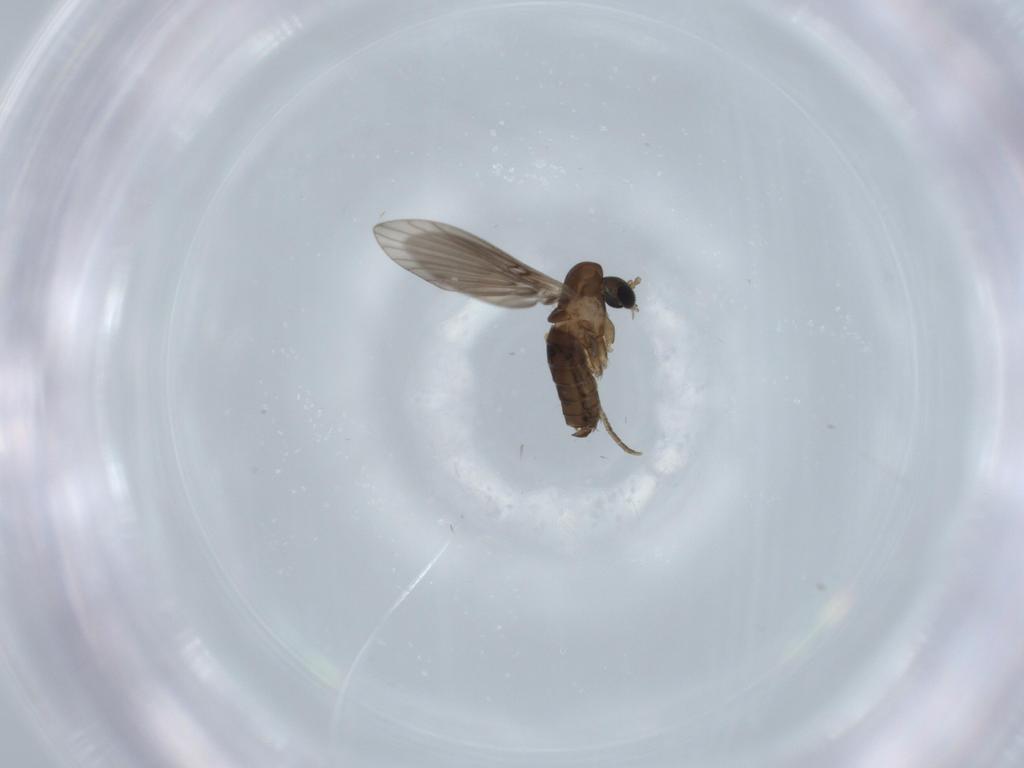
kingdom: Animalia
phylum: Arthropoda
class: Insecta
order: Diptera
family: Psychodidae
